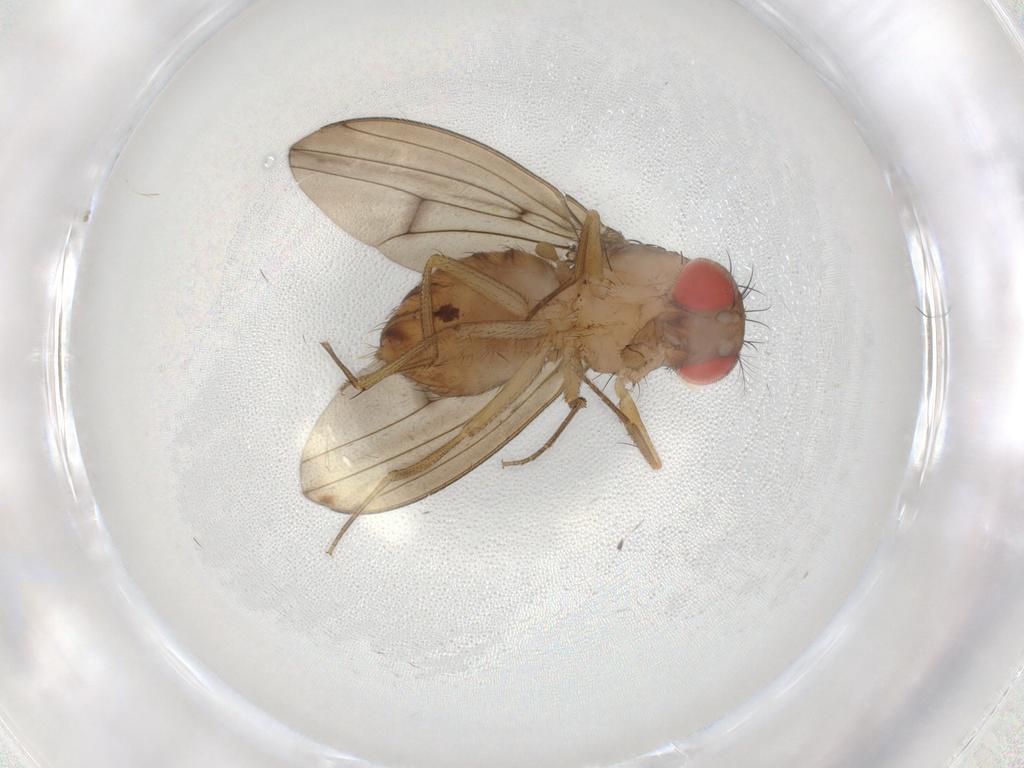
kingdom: Animalia
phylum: Arthropoda
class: Insecta
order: Diptera
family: Drosophilidae
